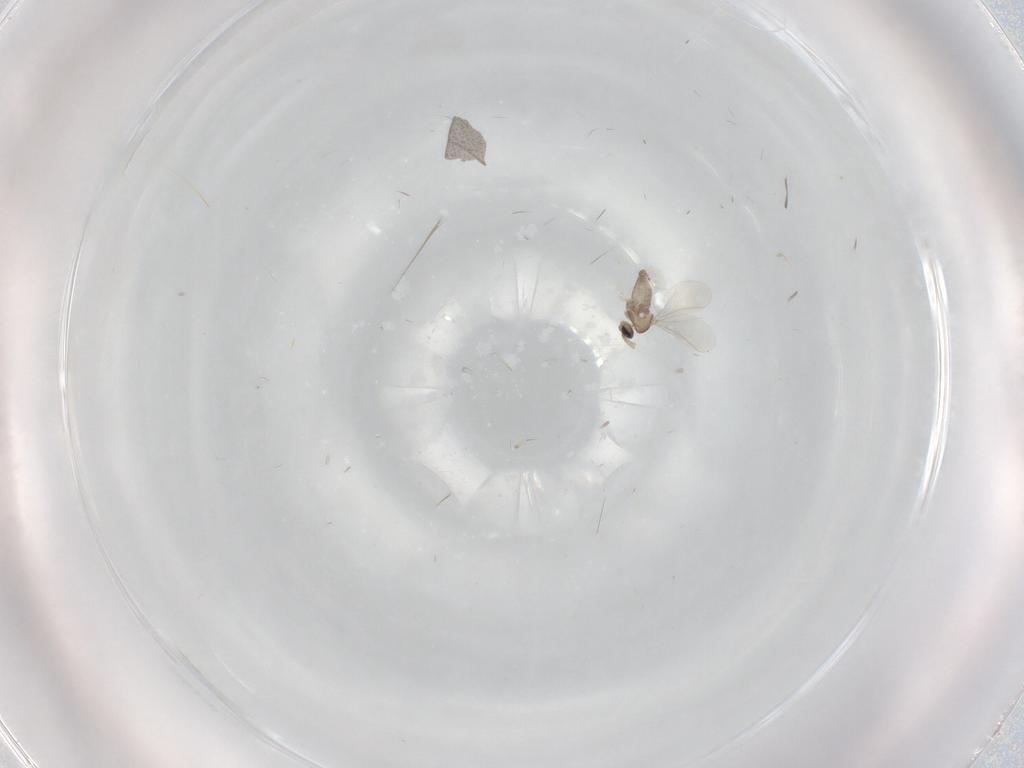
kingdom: Animalia
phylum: Arthropoda
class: Insecta
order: Diptera
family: Cecidomyiidae
